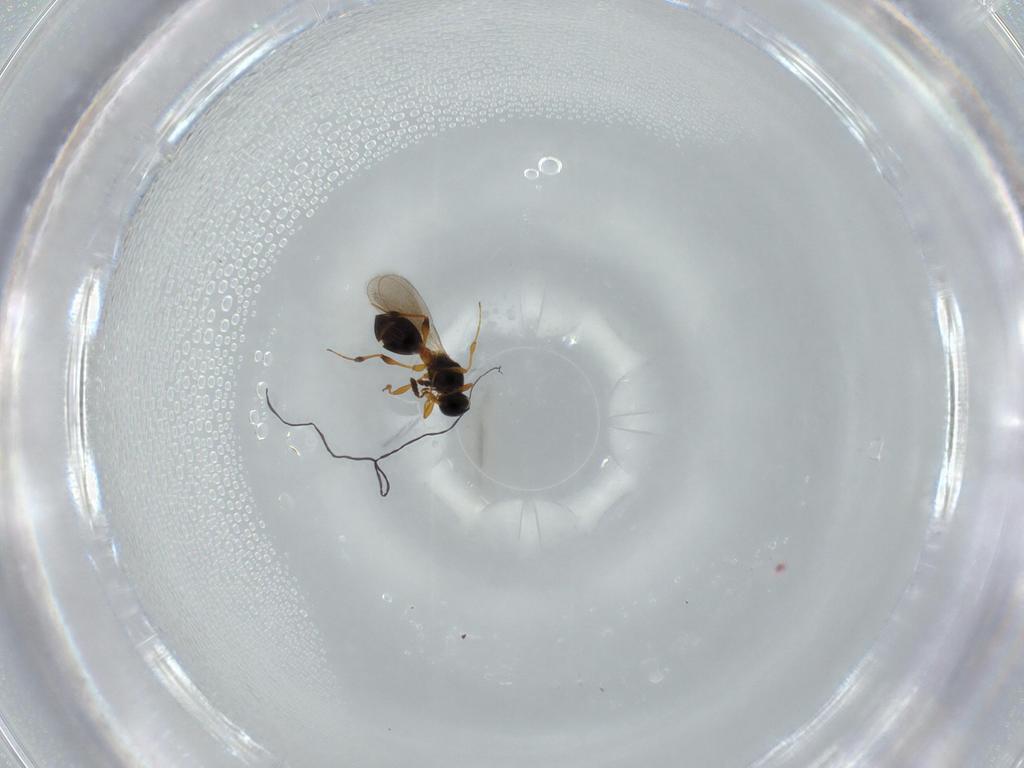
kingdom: Animalia
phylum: Arthropoda
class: Insecta
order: Hymenoptera
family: Platygastridae
